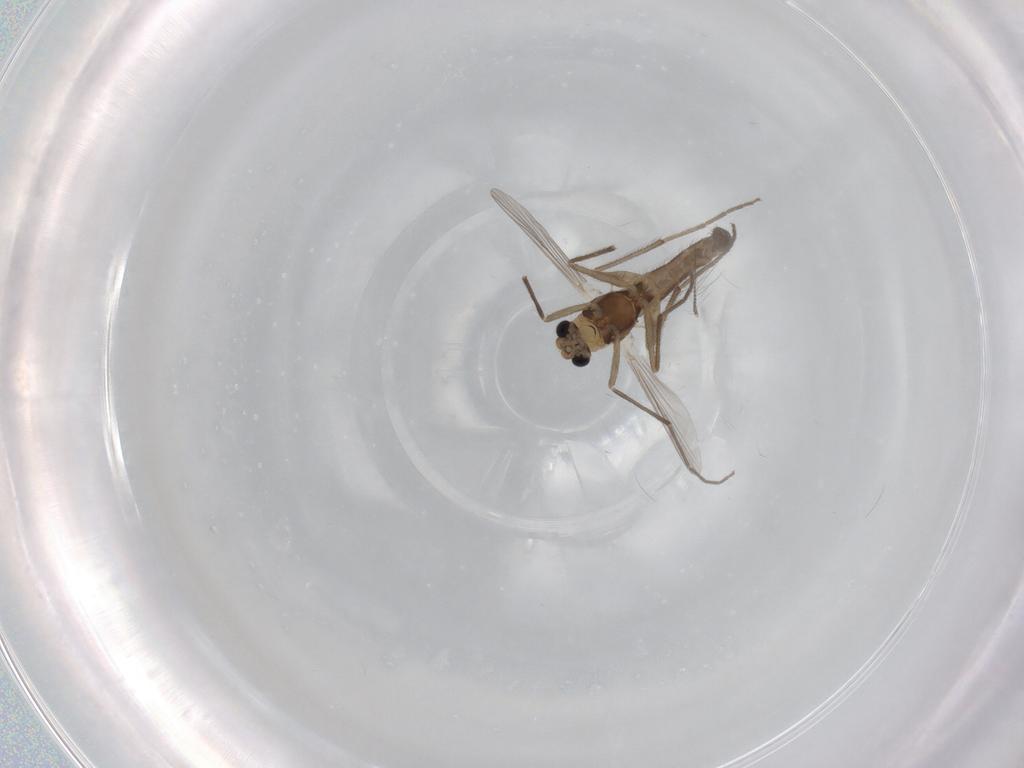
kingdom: Animalia
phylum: Arthropoda
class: Insecta
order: Diptera
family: Chironomidae
